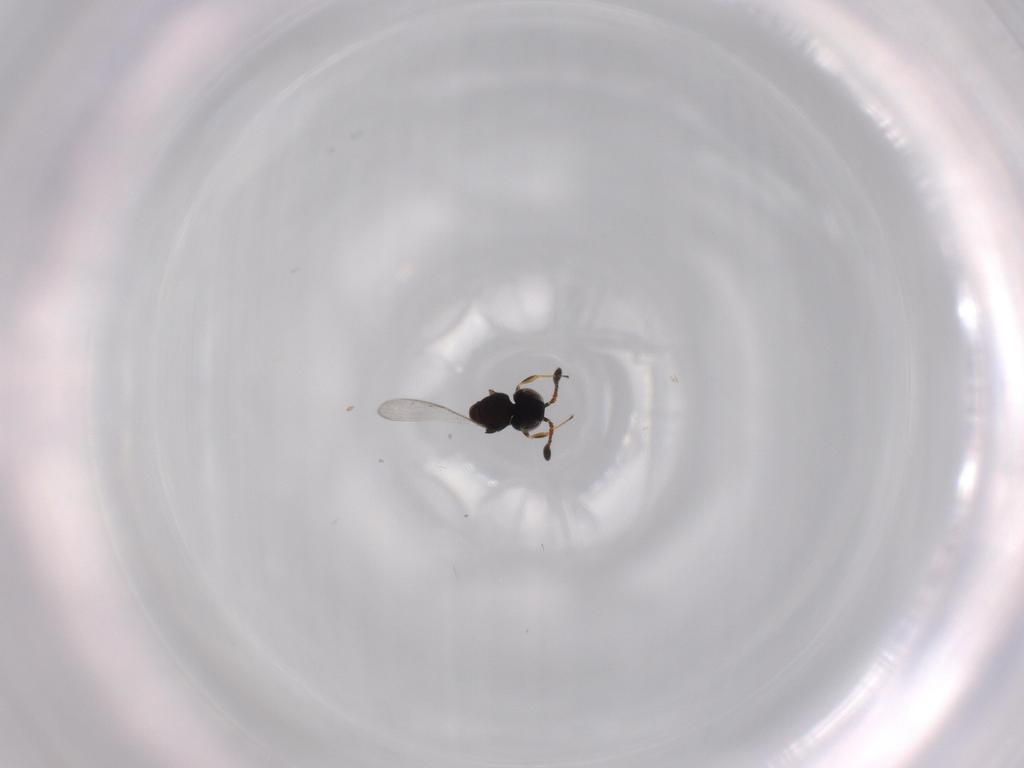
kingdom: Animalia
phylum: Arthropoda
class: Insecta
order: Hymenoptera
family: Scelionidae
